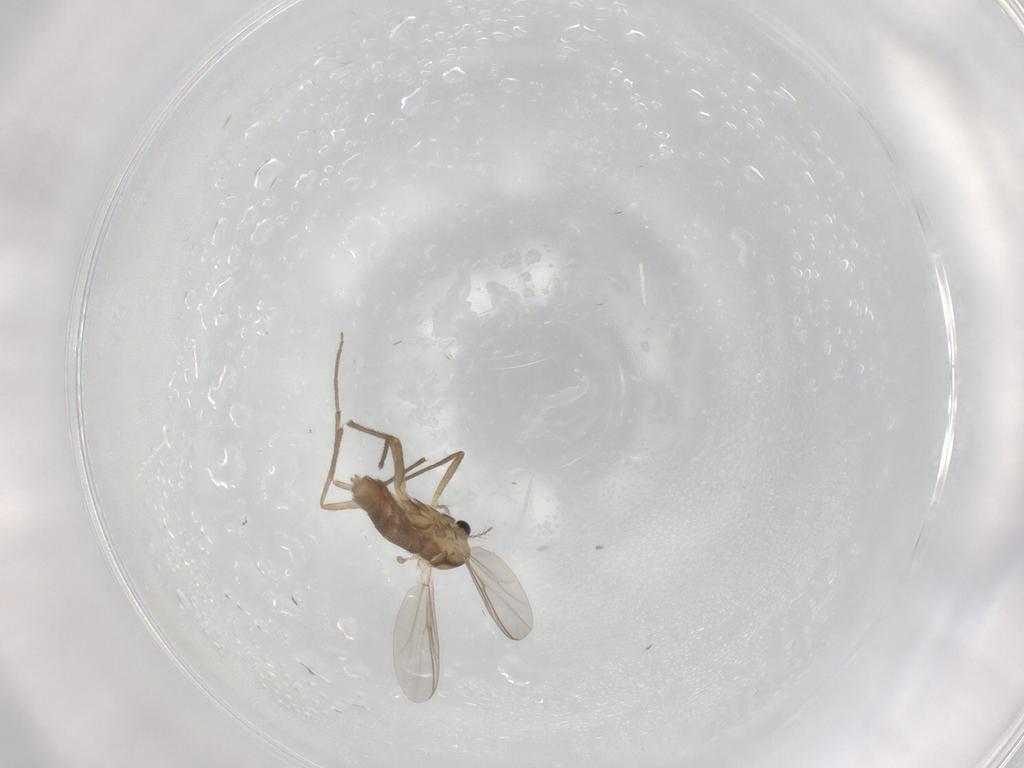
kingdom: Animalia
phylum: Arthropoda
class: Insecta
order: Diptera
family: Chironomidae
